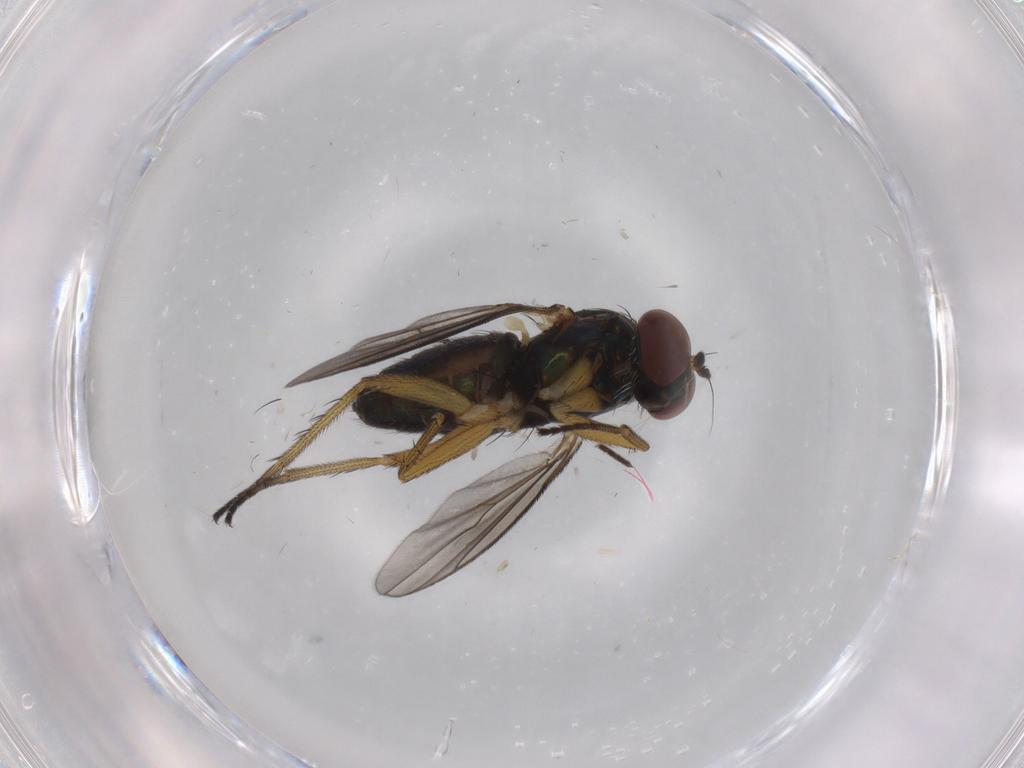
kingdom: Animalia
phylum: Arthropoda
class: Insecta
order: Diptera
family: Dolichopodidae
